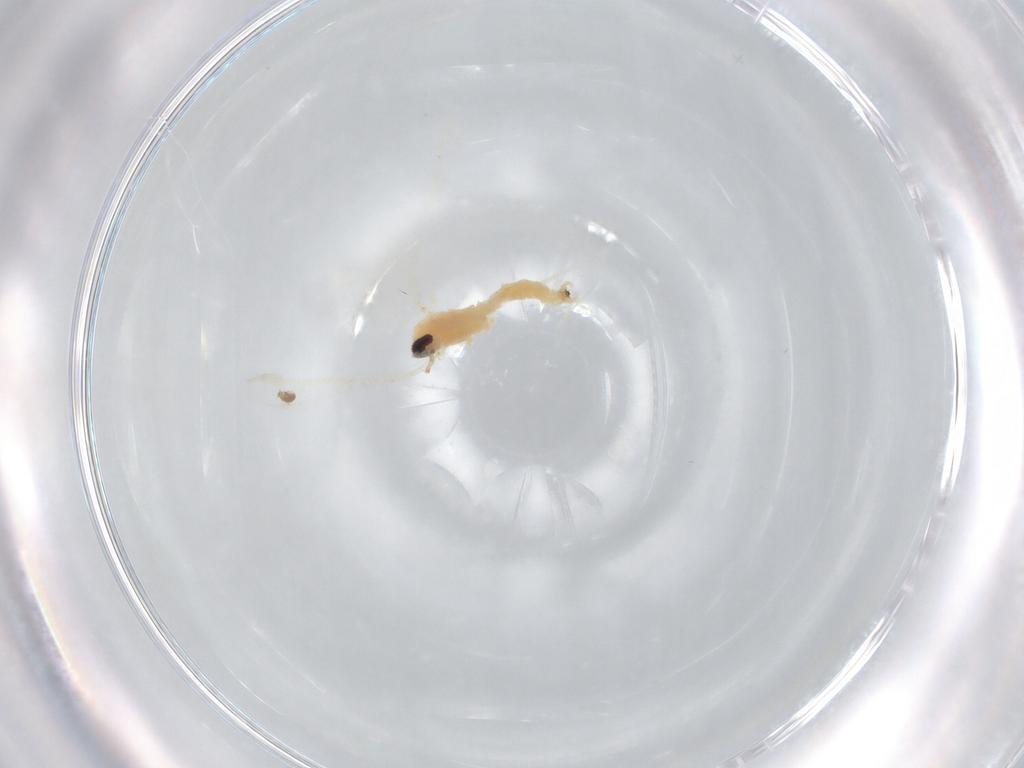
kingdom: Animalia
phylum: Arthropoda
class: Insecta
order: Diptera
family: Cecidomyiidae
